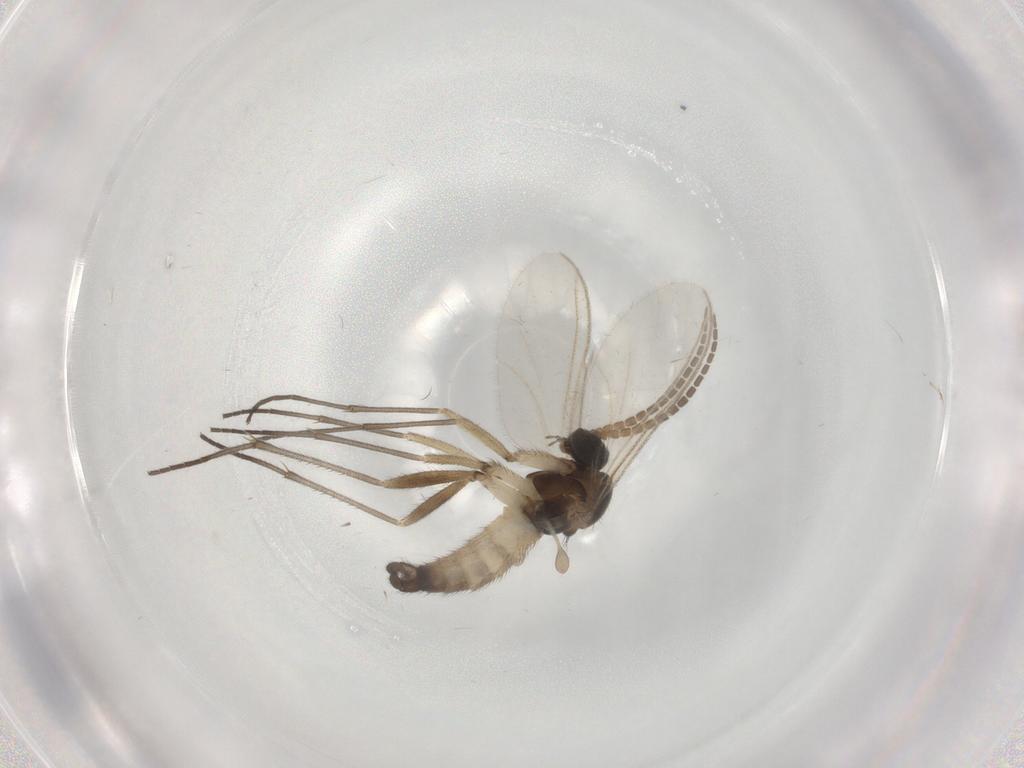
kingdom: Animalia
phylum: Arthropoda
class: Insecta
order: Diptera
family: Sciaridae
